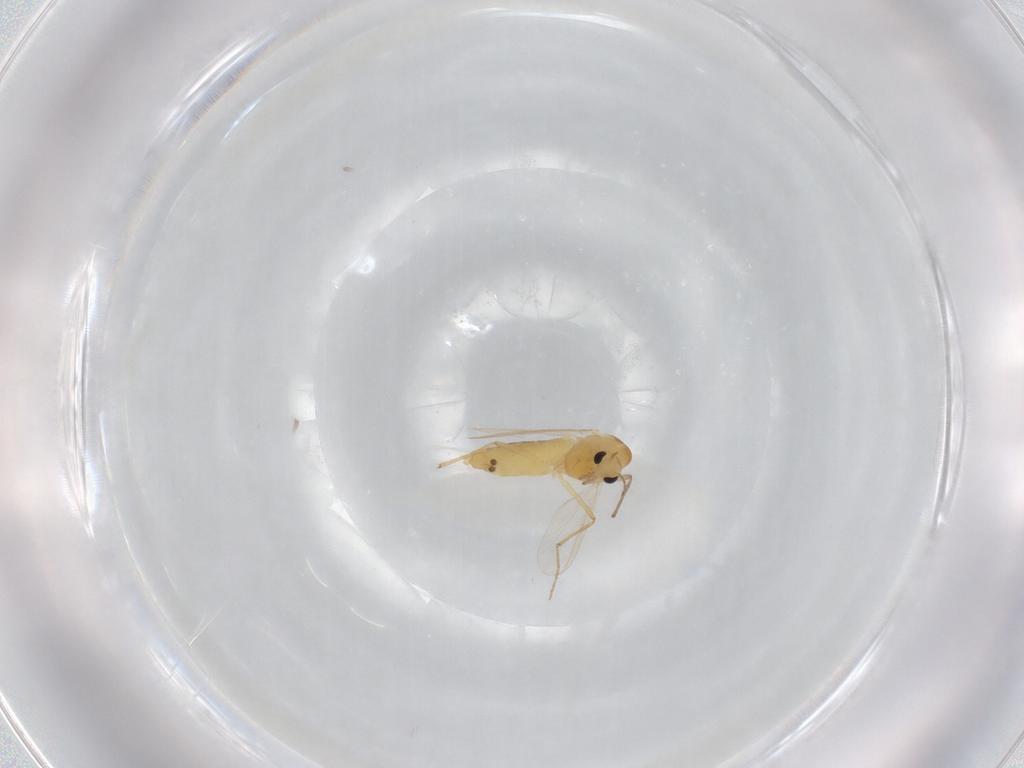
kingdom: Animalia
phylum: Arthropoda
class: Insecta
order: Diptera
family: Chironomidae
